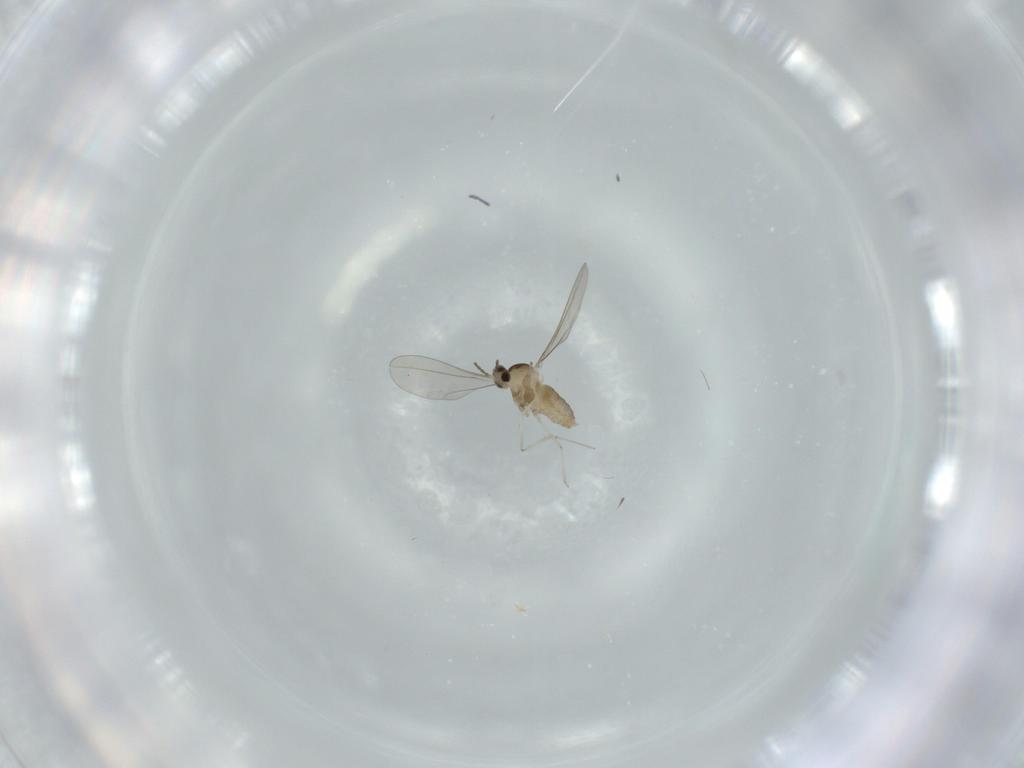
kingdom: Animalia
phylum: Arthropoda
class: Insecta
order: Diptera
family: Cecidomyiidae
